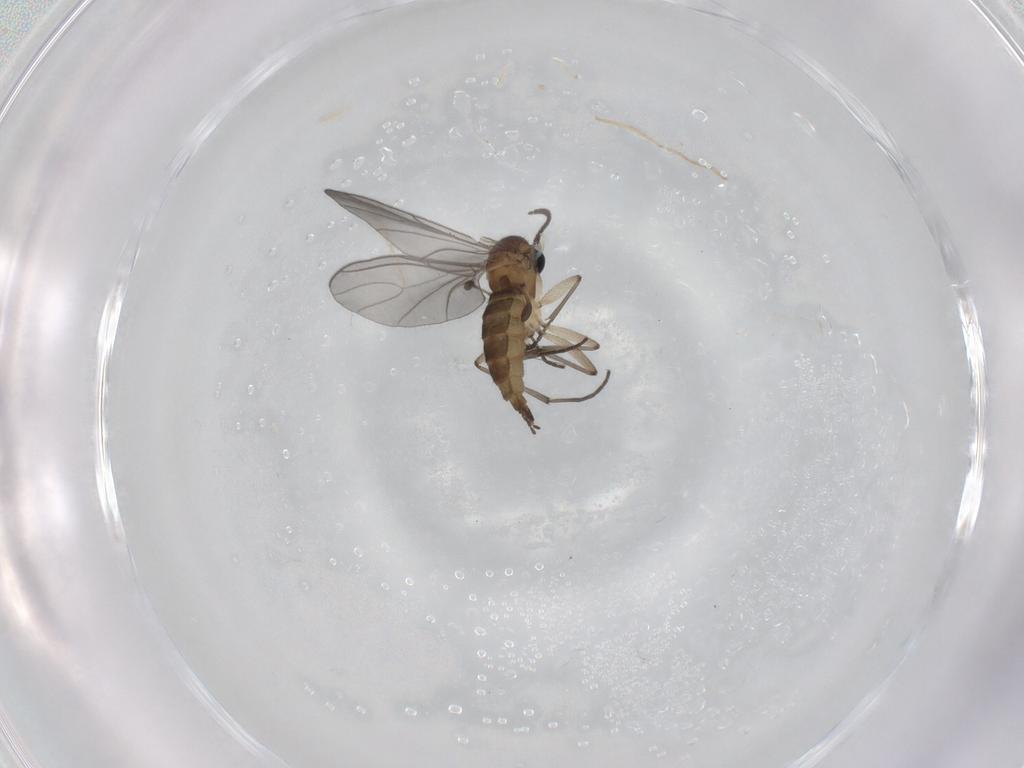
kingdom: Animalia
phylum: Arthropoda
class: Insecta
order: Diptera
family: Sciaridae
